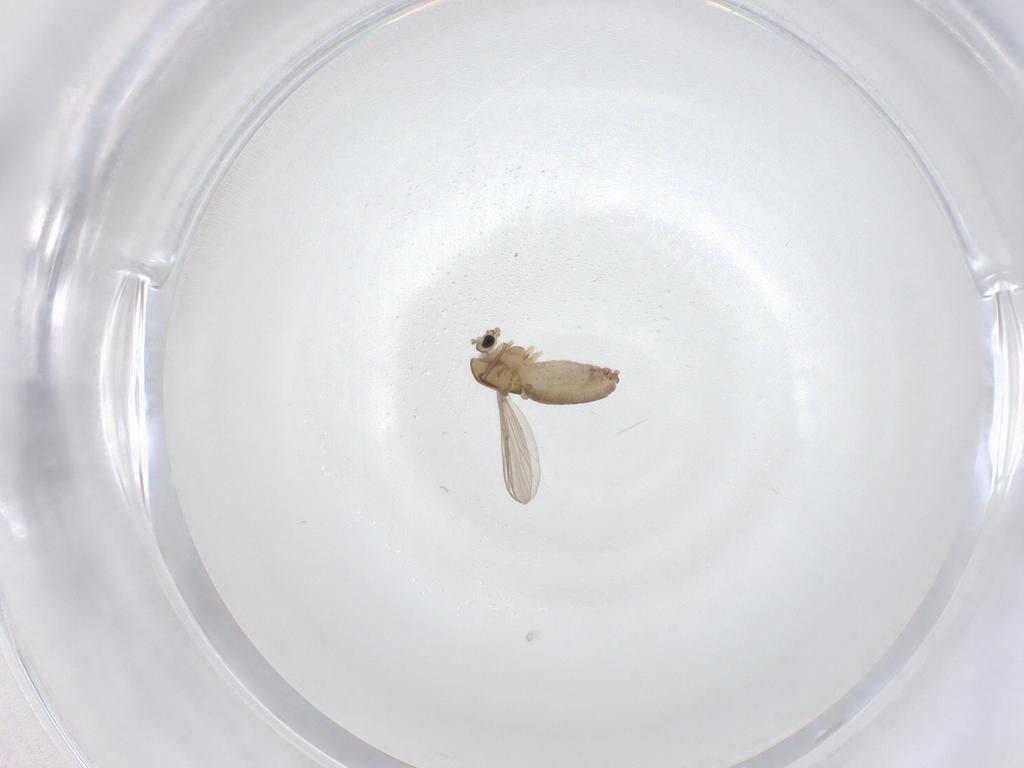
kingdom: Animalia
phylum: Arthropoda
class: Insecta
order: Diptera
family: Chironomidae
